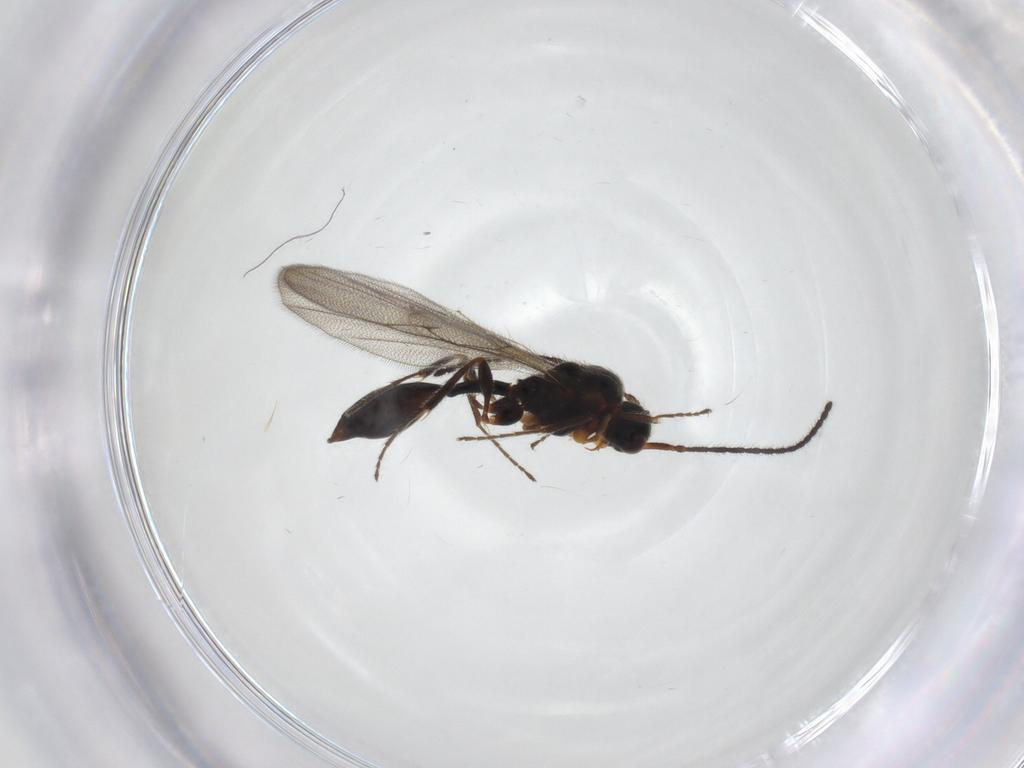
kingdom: Animalia
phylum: Arthropoda
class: Insecta
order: Hymenoptera
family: Diapriidae
